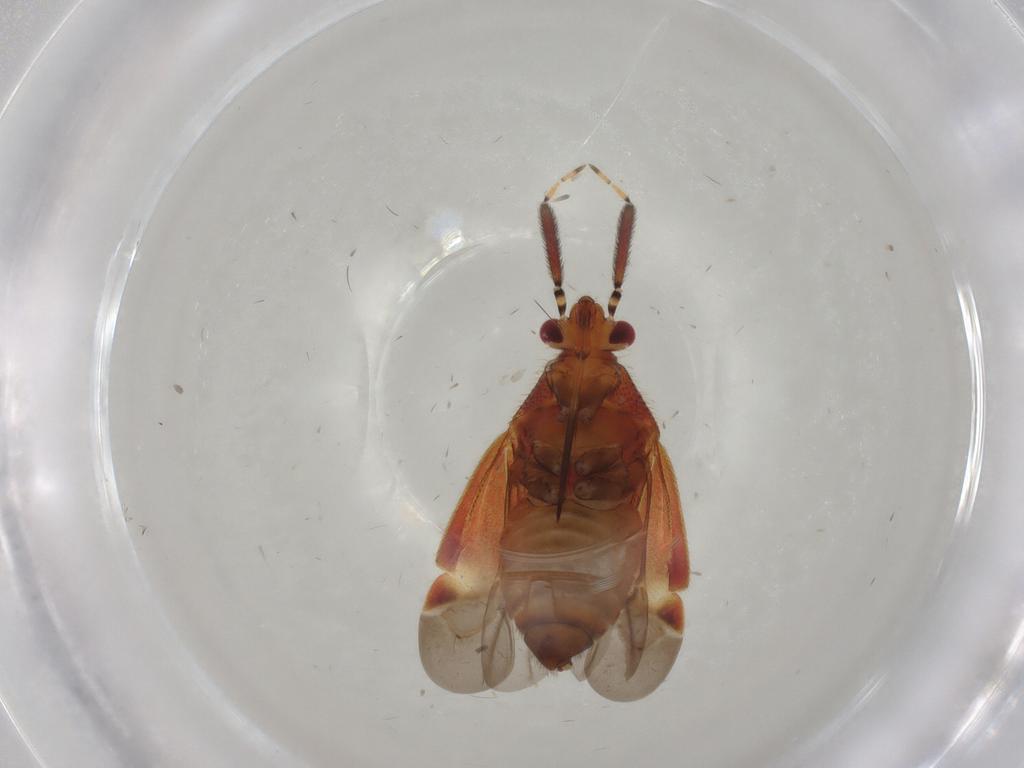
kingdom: Animalia
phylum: Arthropoda
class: Insecta
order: Hemiptera
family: Miridae
